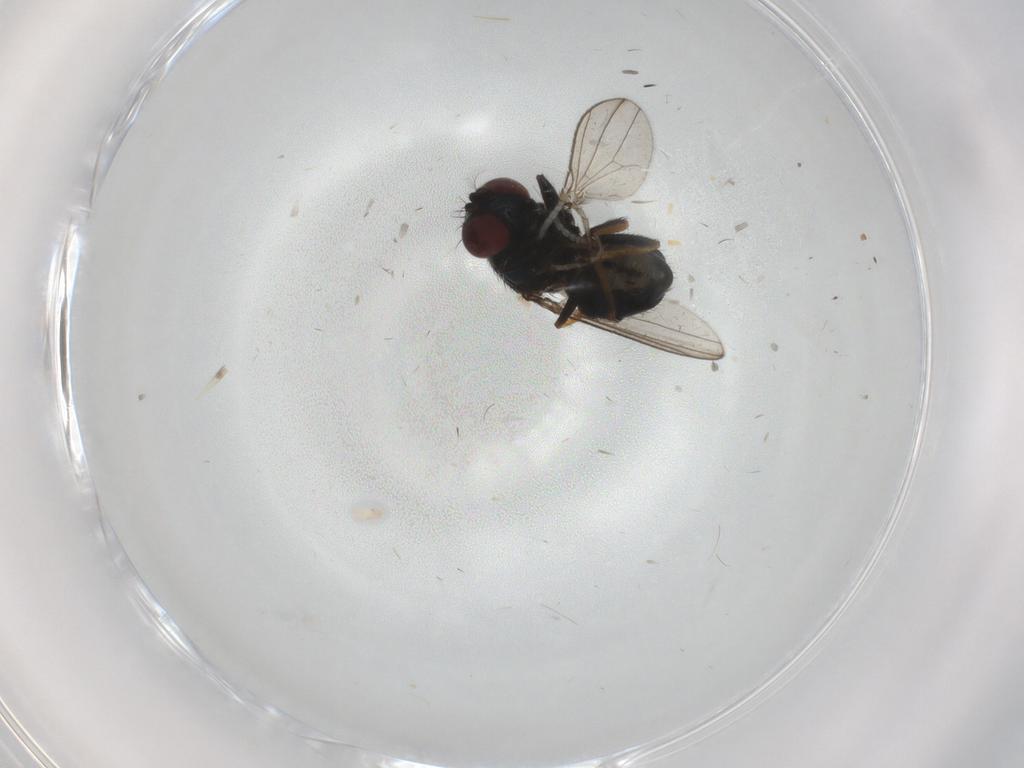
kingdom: Animalia
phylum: Arthropoda
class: Insecta
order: Diptera
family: Ephydridae
